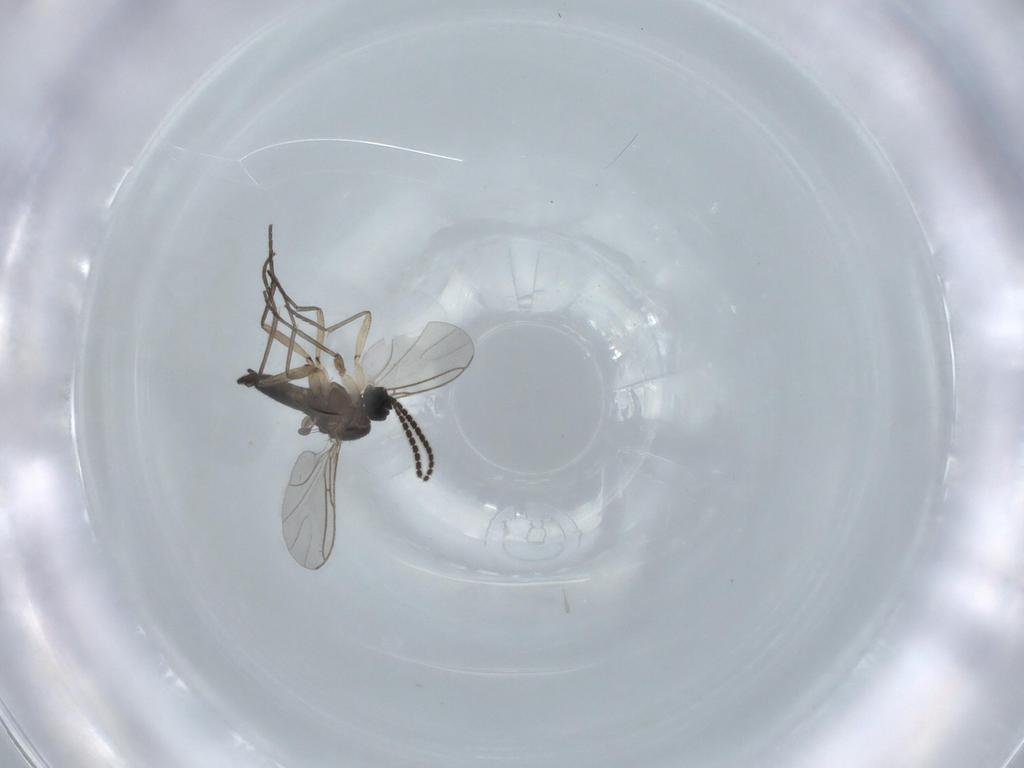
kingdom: Animalia
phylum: Arthropoda
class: Insecta
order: Diptera
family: Sciaridae
